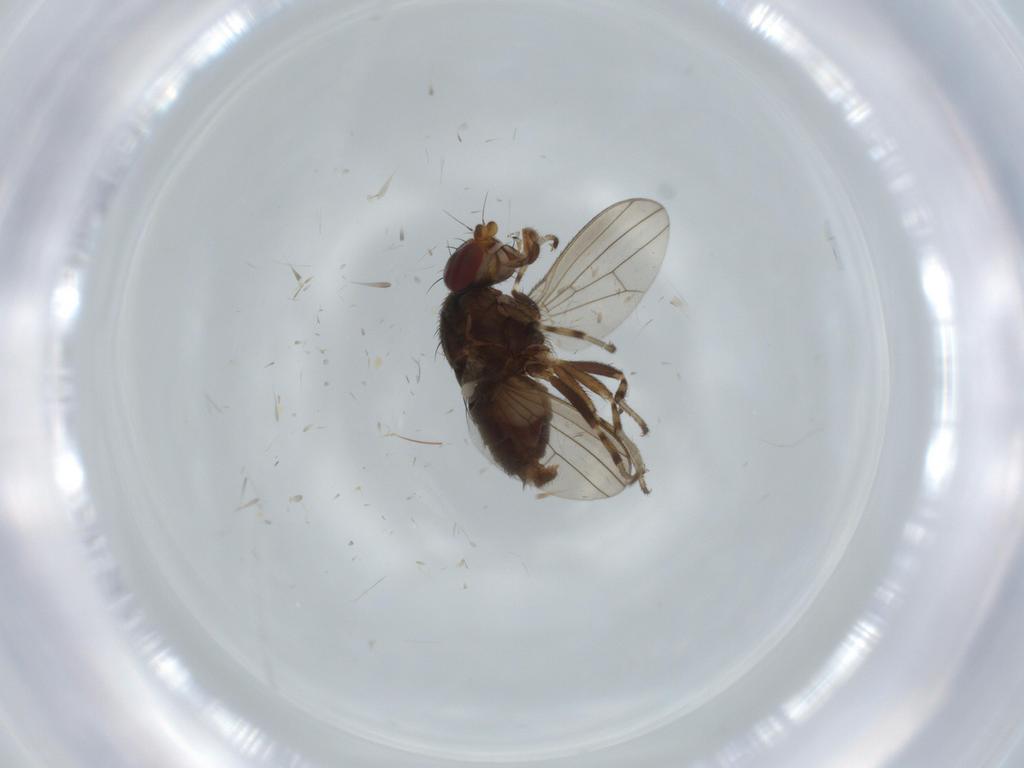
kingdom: Animalia
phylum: Arthropoda
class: Insecta
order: Diptera
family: Heleomyzidae
